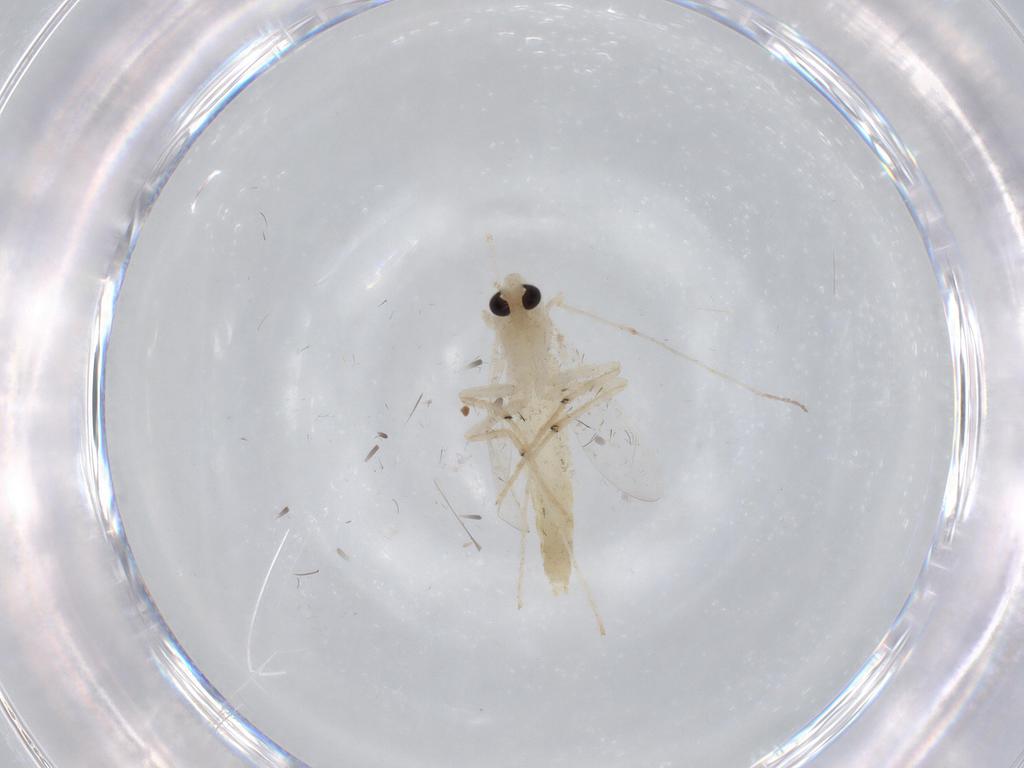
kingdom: Animalia
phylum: Arthropoda
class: Insecta
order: Diptera
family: Chironomidae
